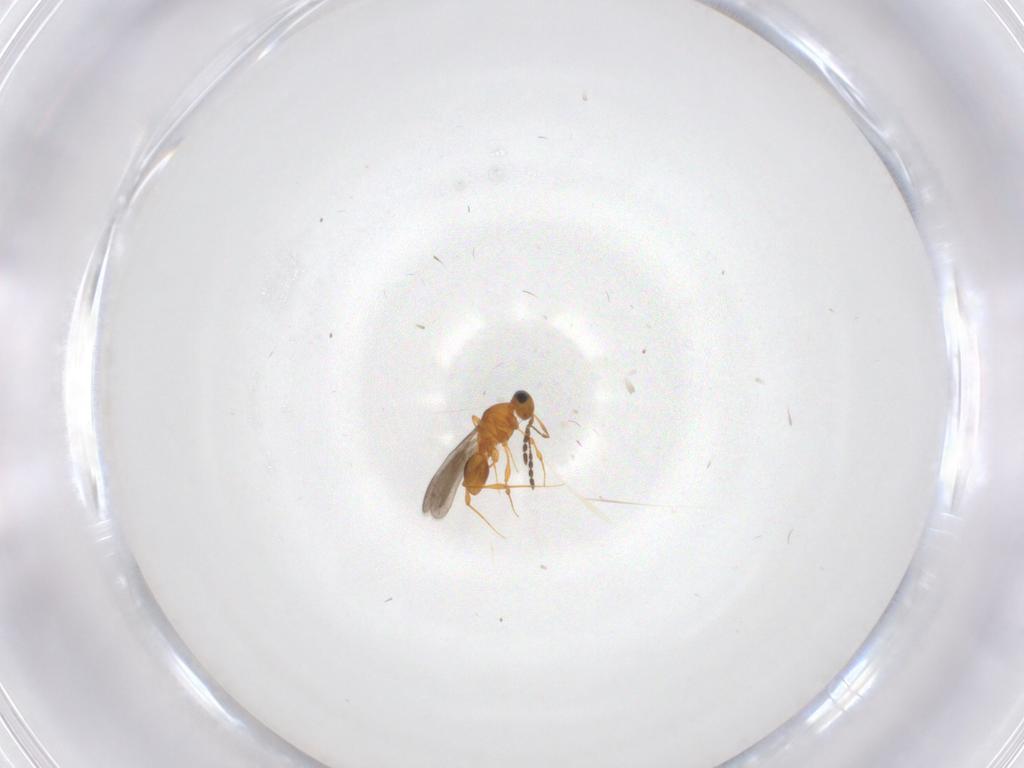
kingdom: Animalia
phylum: Arthropoda
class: Insecta
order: Hymenoptera
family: Platygastridae
